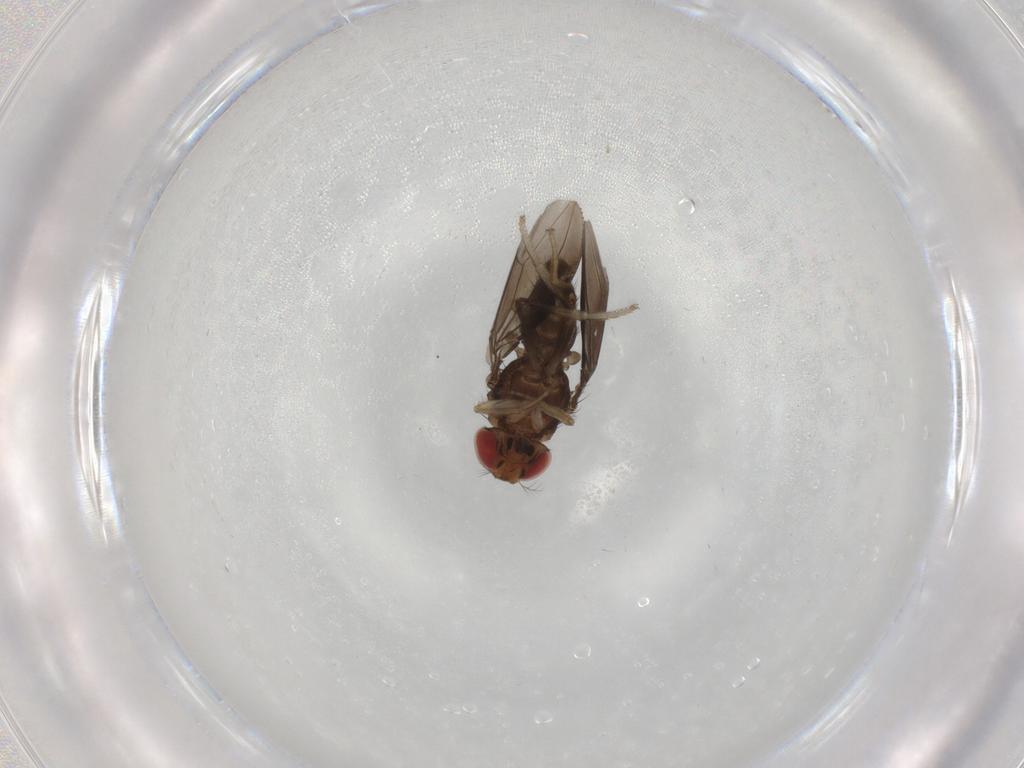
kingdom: Animalia
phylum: Arthropoda
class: Insecta
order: Diptera
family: Drosophilidae
